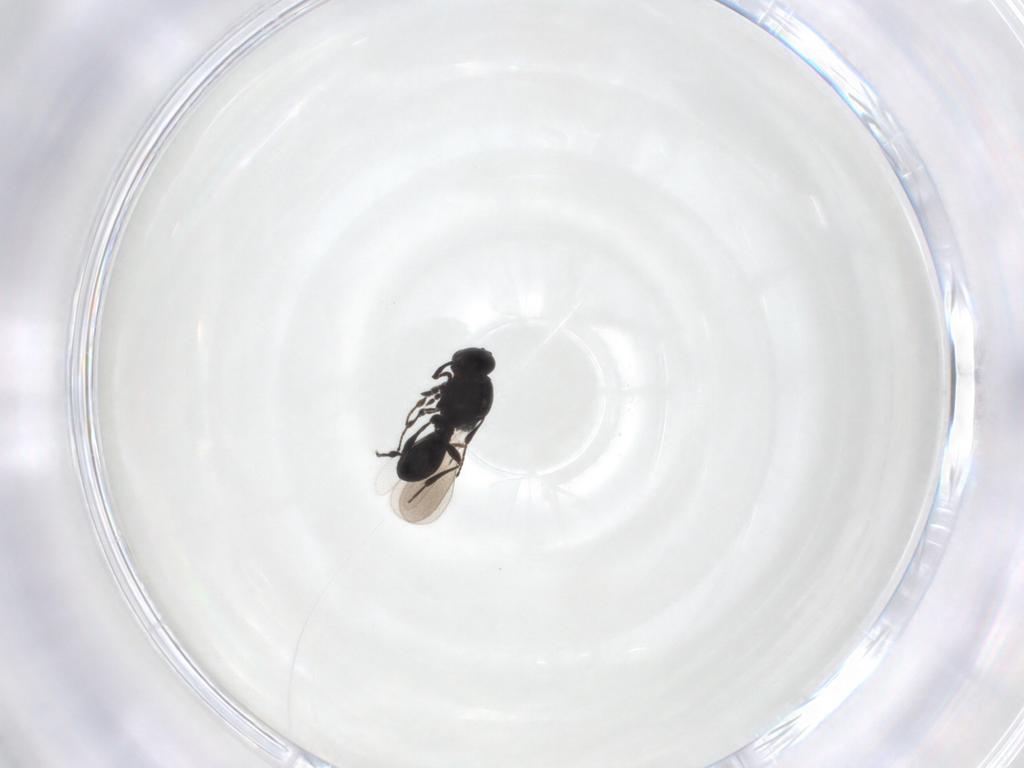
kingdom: Animalia
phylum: Arthropoda
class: Insecta
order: Hymenoptera
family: Platygastridae
